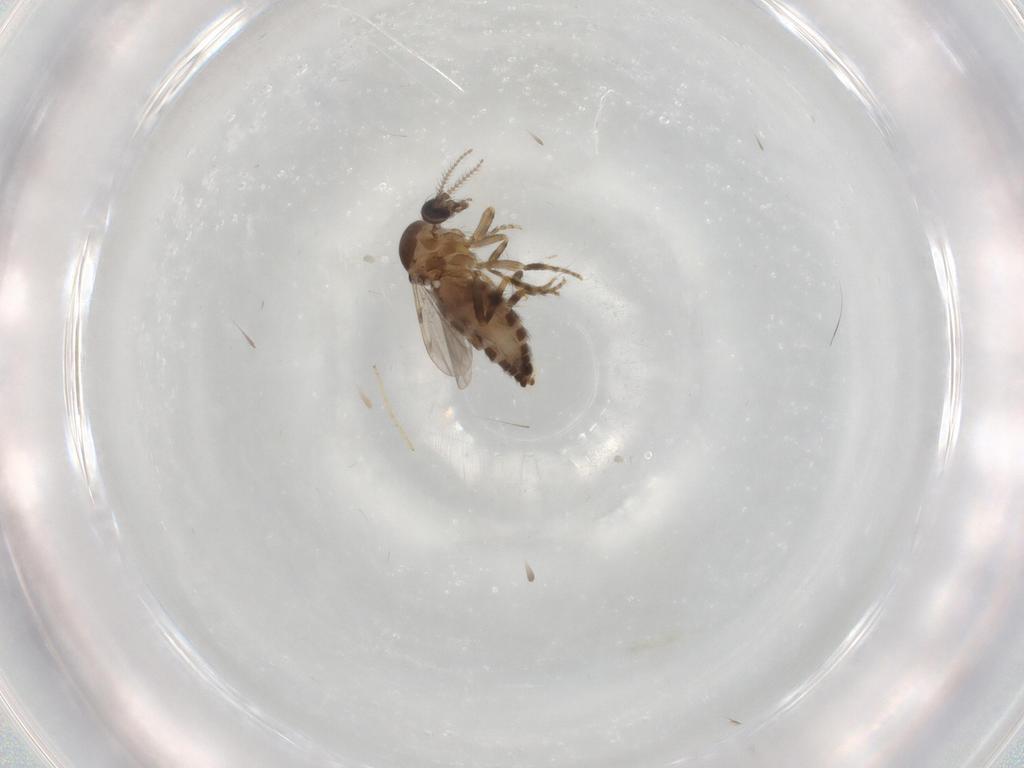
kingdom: Animalia
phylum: Arthropoda
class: Insecta
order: Diptera
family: Ceratopogonidae
